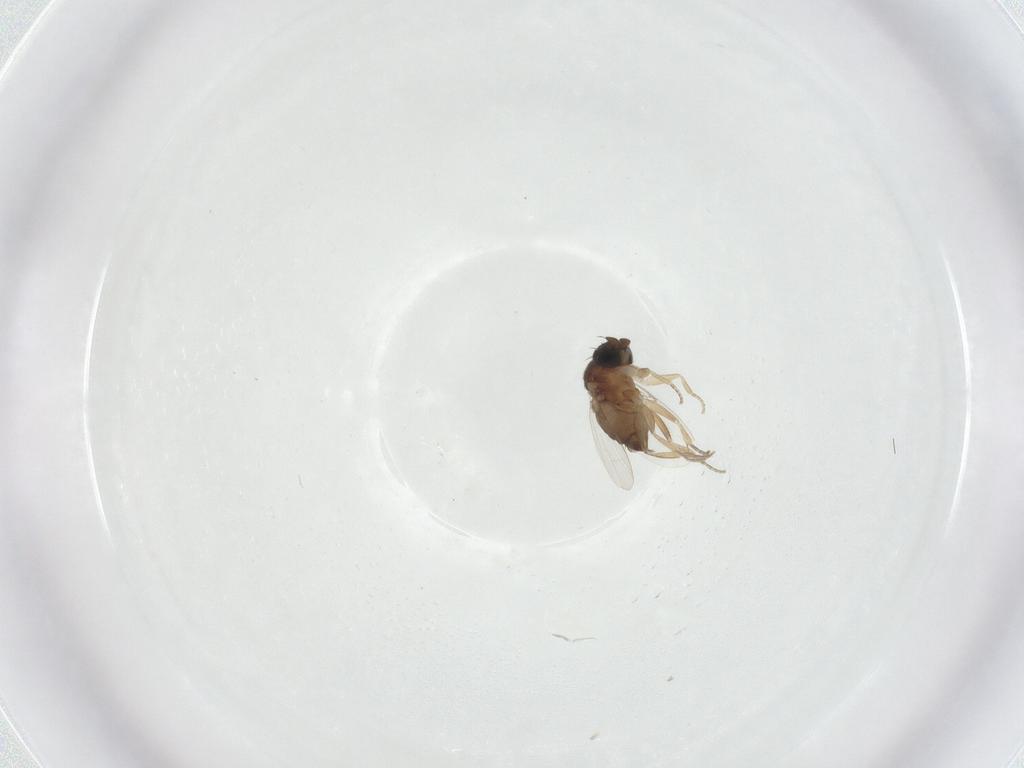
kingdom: Animalia
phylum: Arthropoda
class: Insecta
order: Diptera
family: Phoridae
